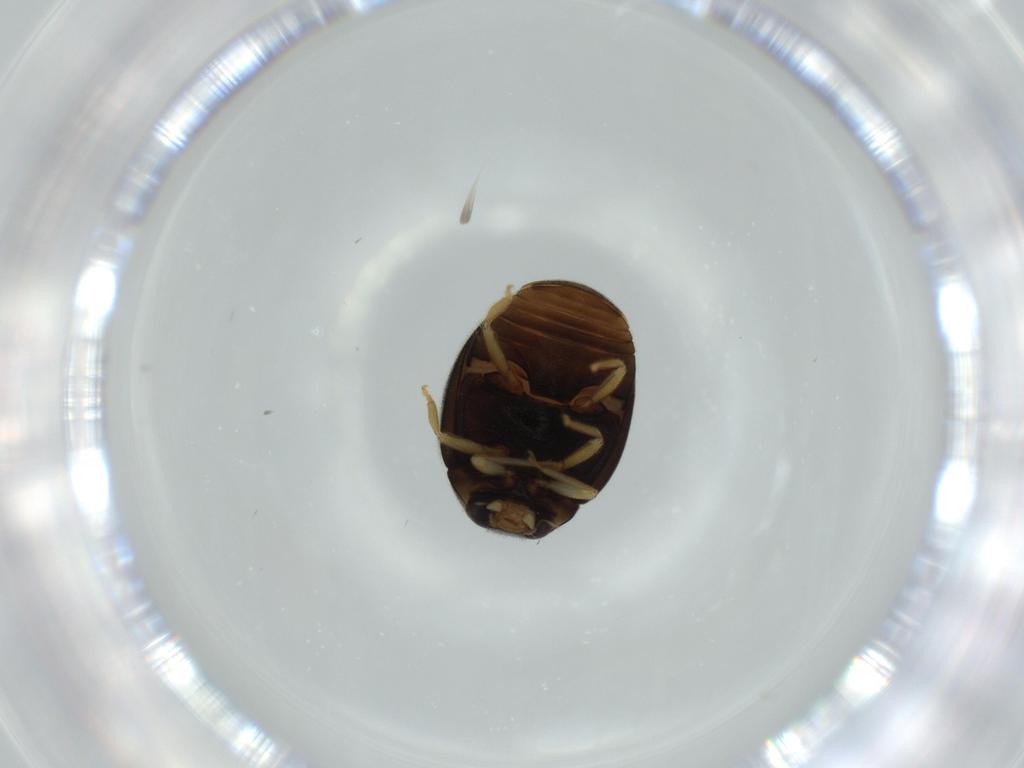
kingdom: Animalia
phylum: Arthropoda
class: Insecta
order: Coleoptera
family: Coccinellidae
